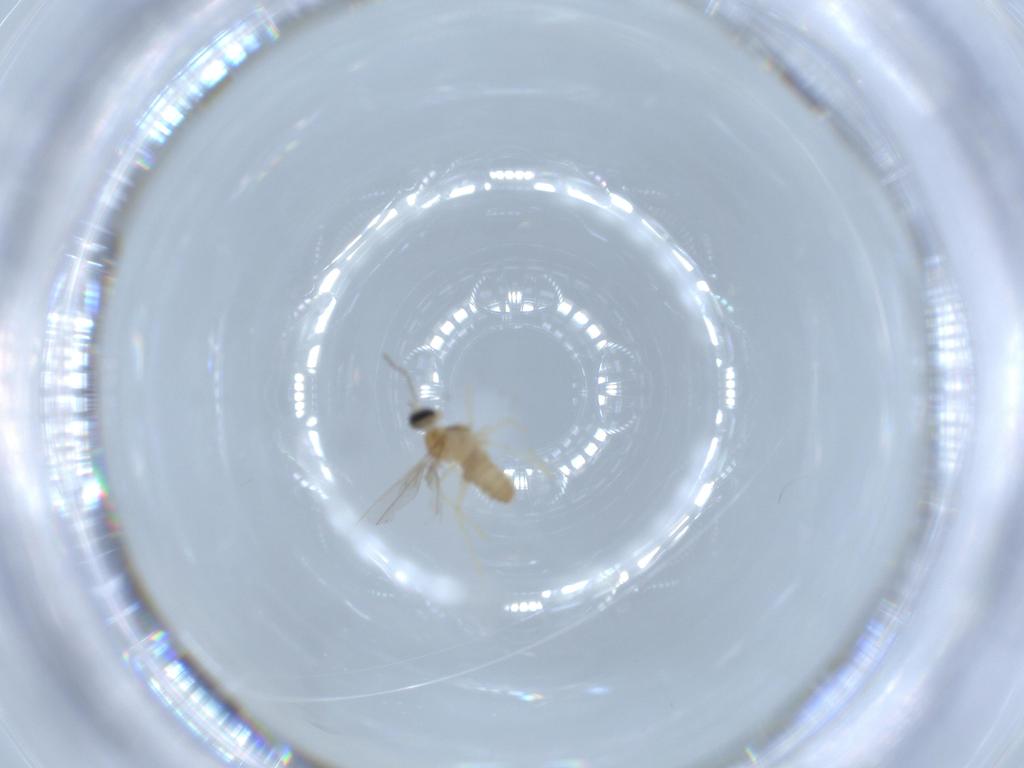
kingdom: Animalia
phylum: Arthropoda
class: Insecta
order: Diptera
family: Cecidomyiidae
